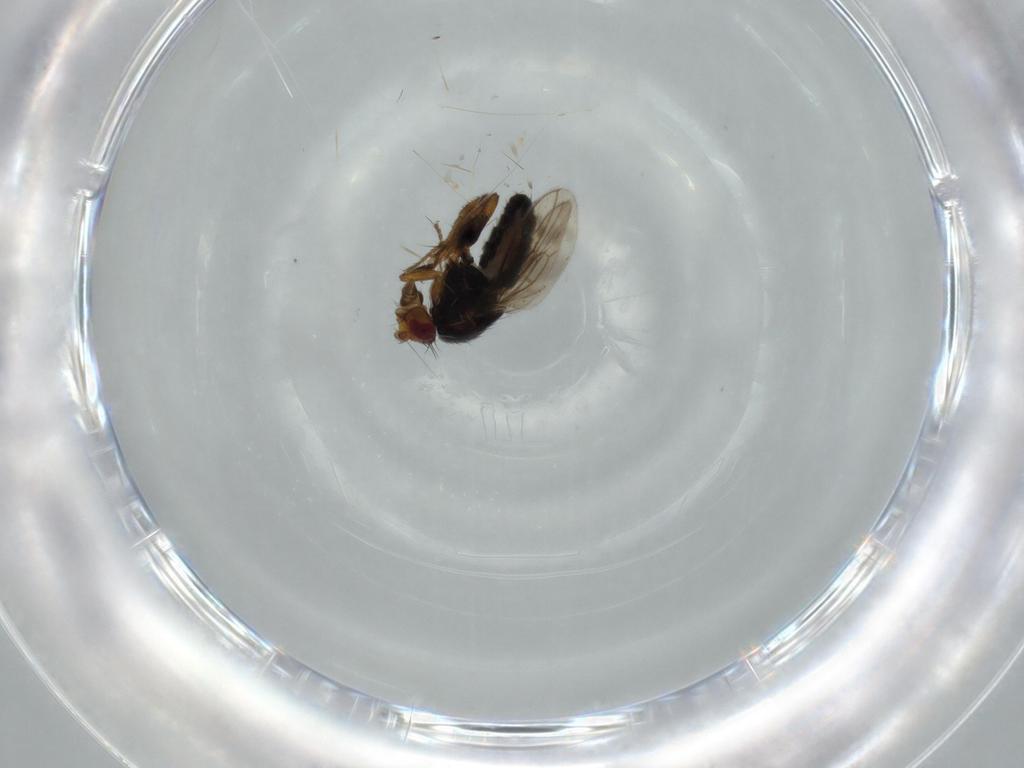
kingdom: Animalia
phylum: Arthropoda
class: Insecta
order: Diptera
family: Sphaeroceridae
